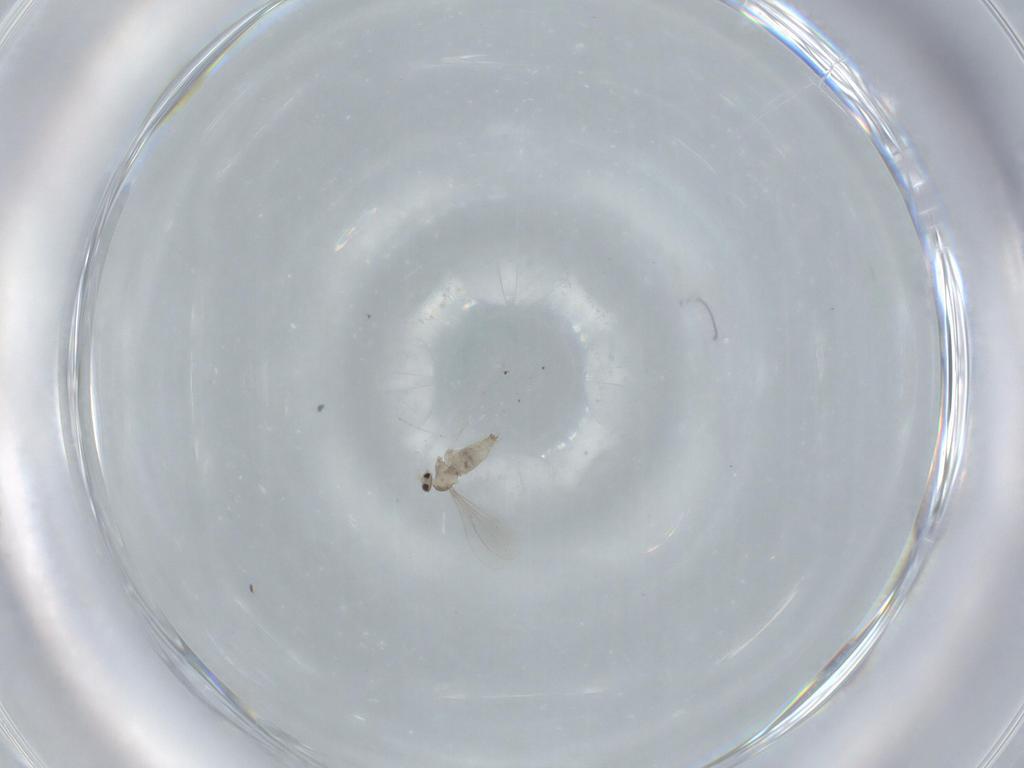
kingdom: Animalia
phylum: Arthropoda
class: Insecta
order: Diptera
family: Cecidomyiidae
